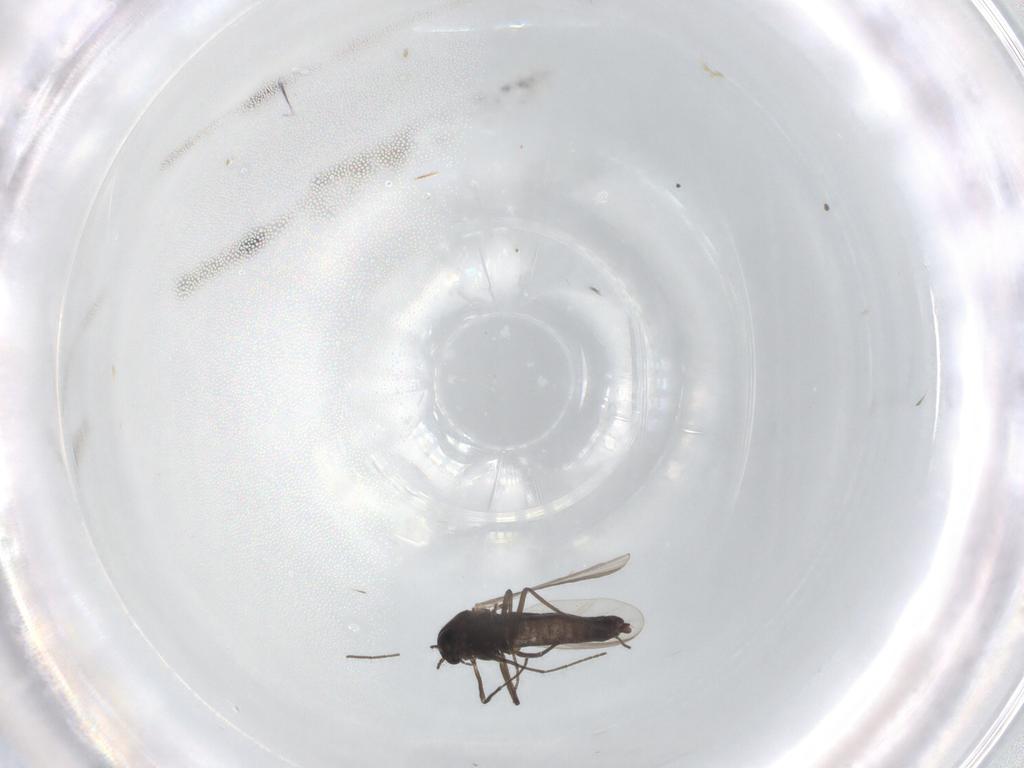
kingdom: Animalia
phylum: Arthropoda
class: Insecta
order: Diptera
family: Chironomidae
